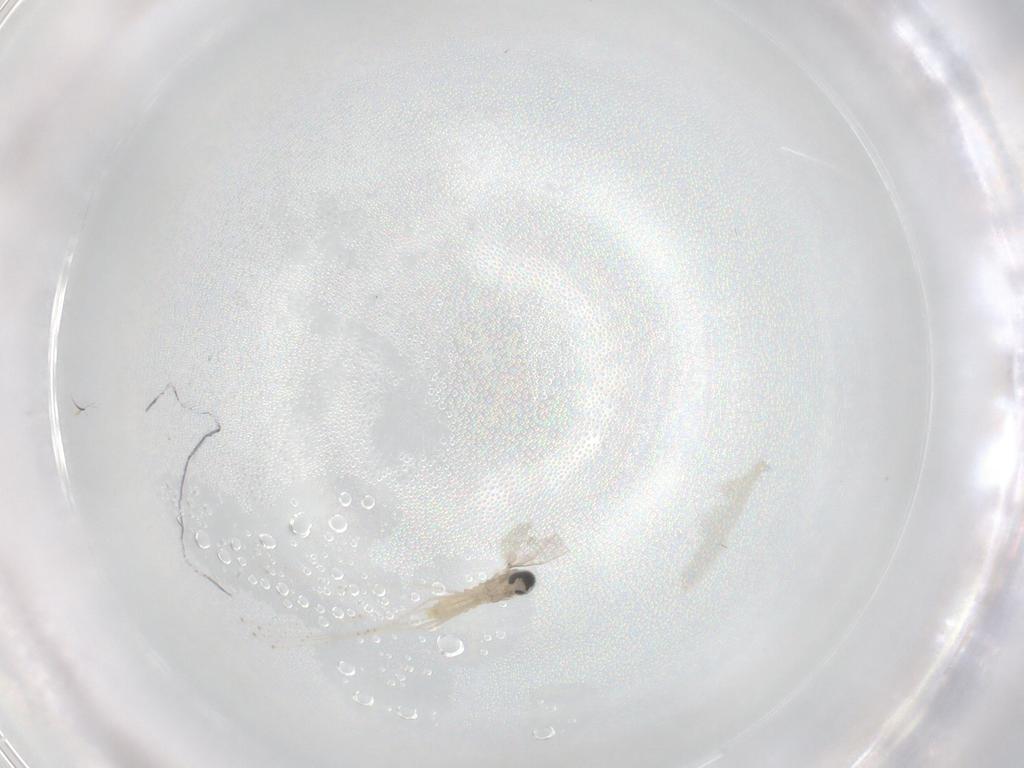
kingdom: Animalia
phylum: Arthropoda
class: Insecta
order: Diptera
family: Cecidomyiidae
